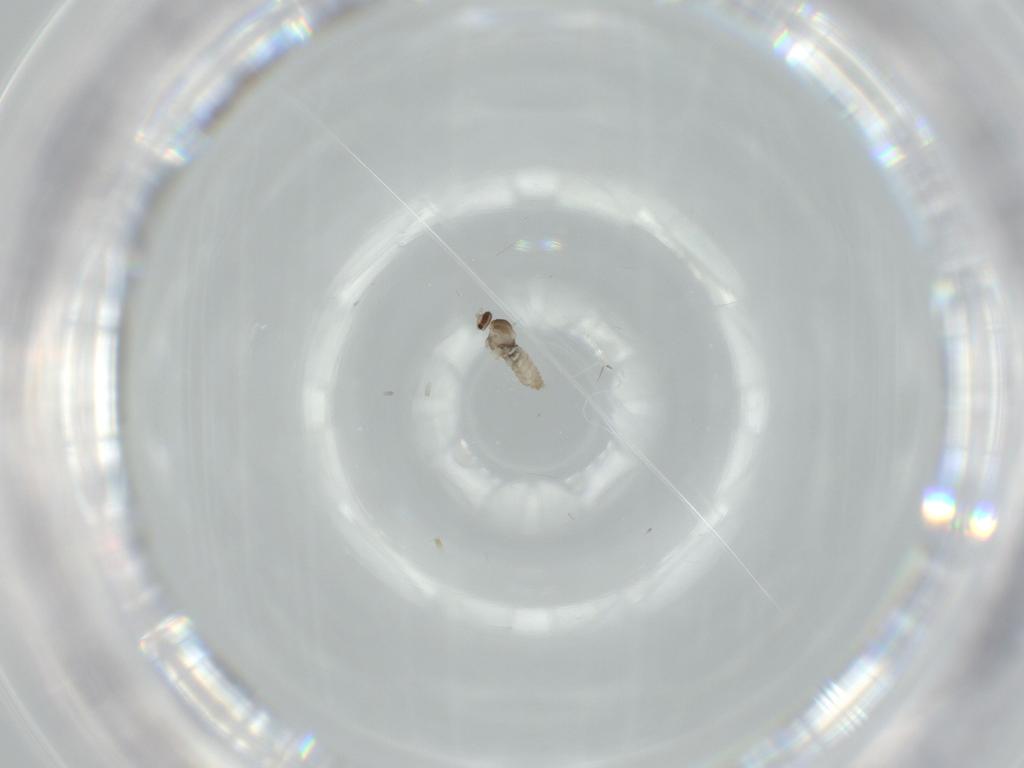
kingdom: Animalia
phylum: Arthropoda
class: Insecta
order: Diptera
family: Cecidomyiidae
